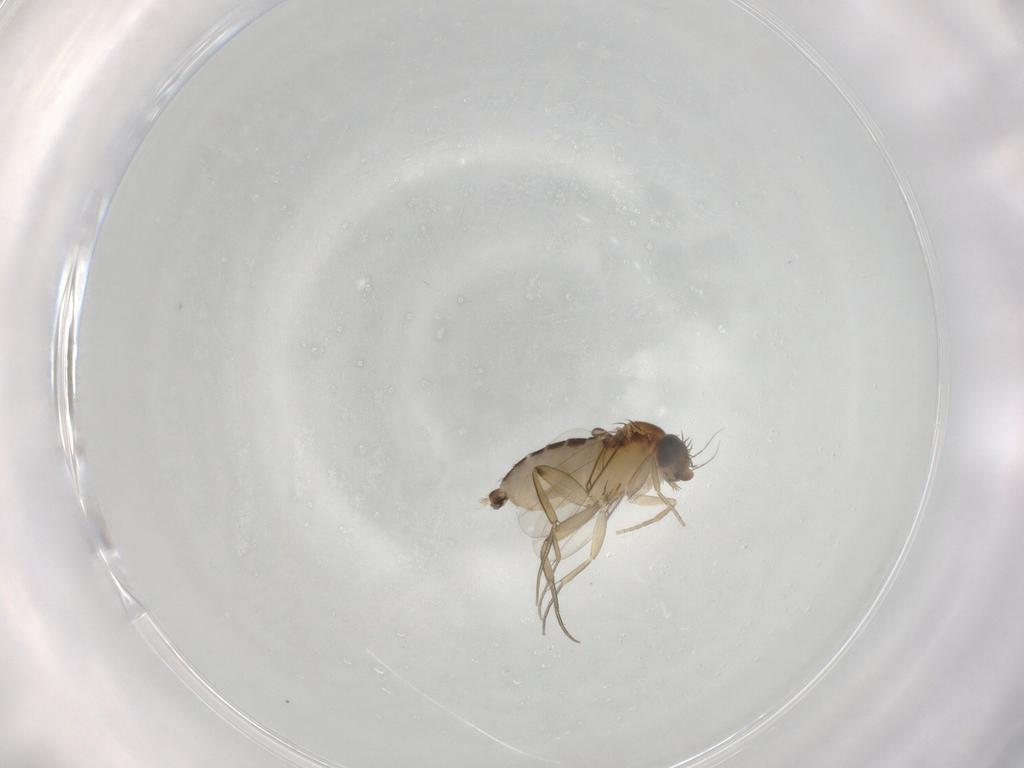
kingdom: Animalia
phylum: Arthropoda
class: Insecta
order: Diptera
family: Phoridae
